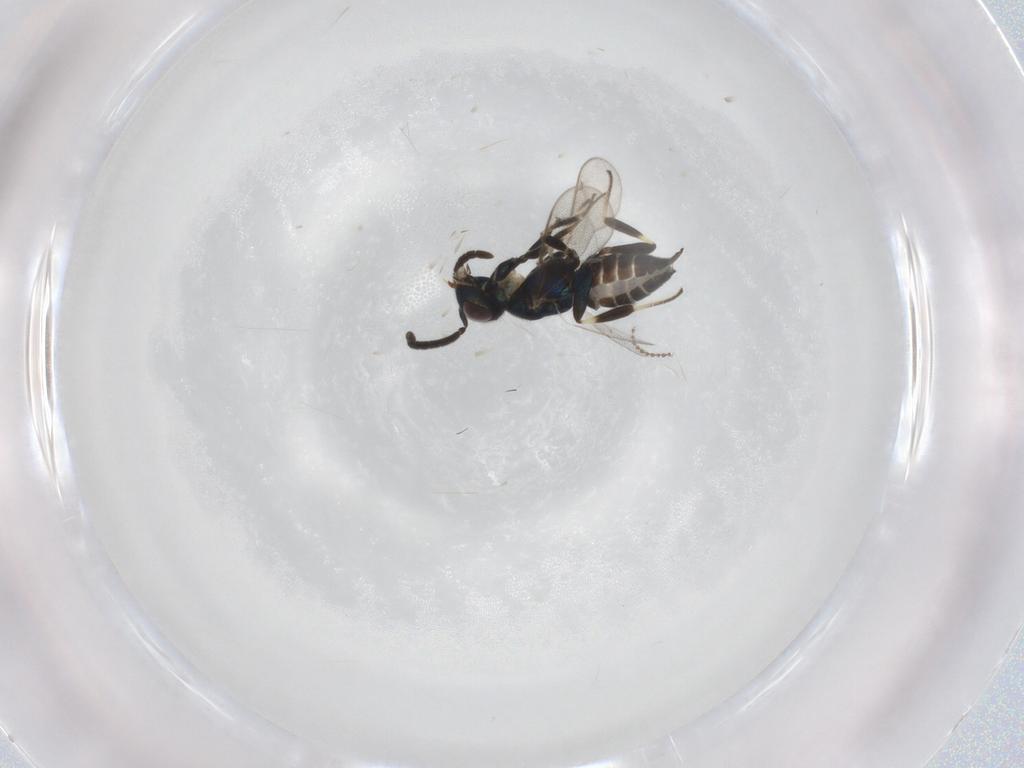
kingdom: Animalia
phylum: Arthropoda
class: Insecta
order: Hymenoptera
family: Eupelmidae
